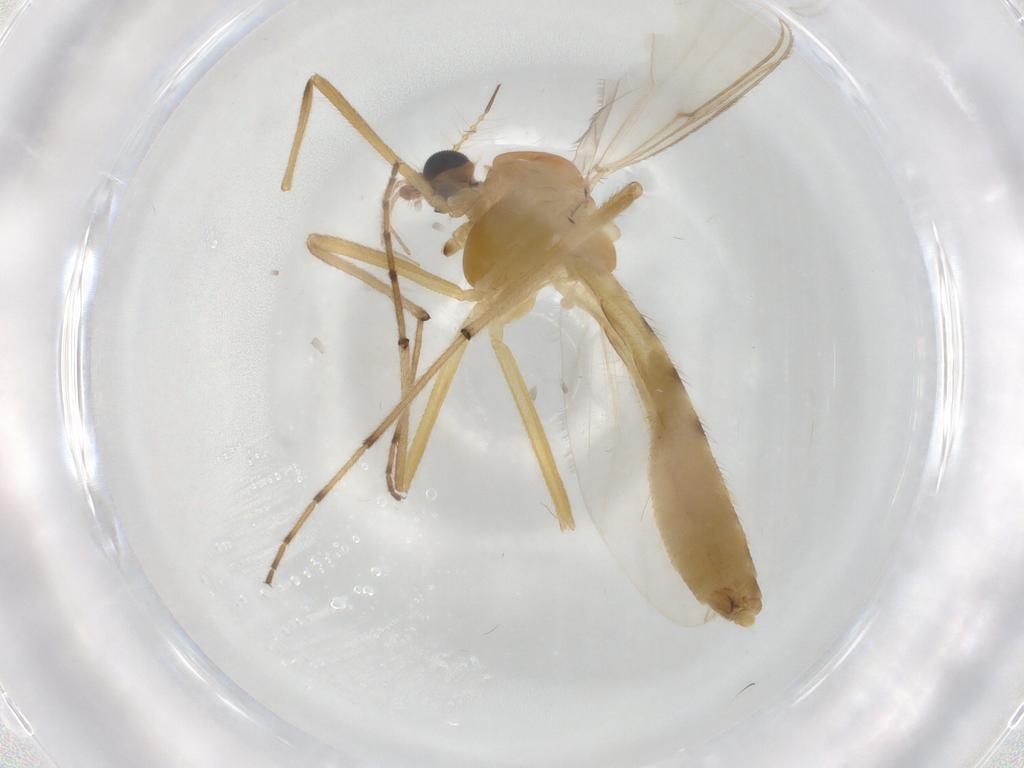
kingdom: Animalia
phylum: Arthropoda
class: Insecta
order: Diptera
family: Chironomidae
